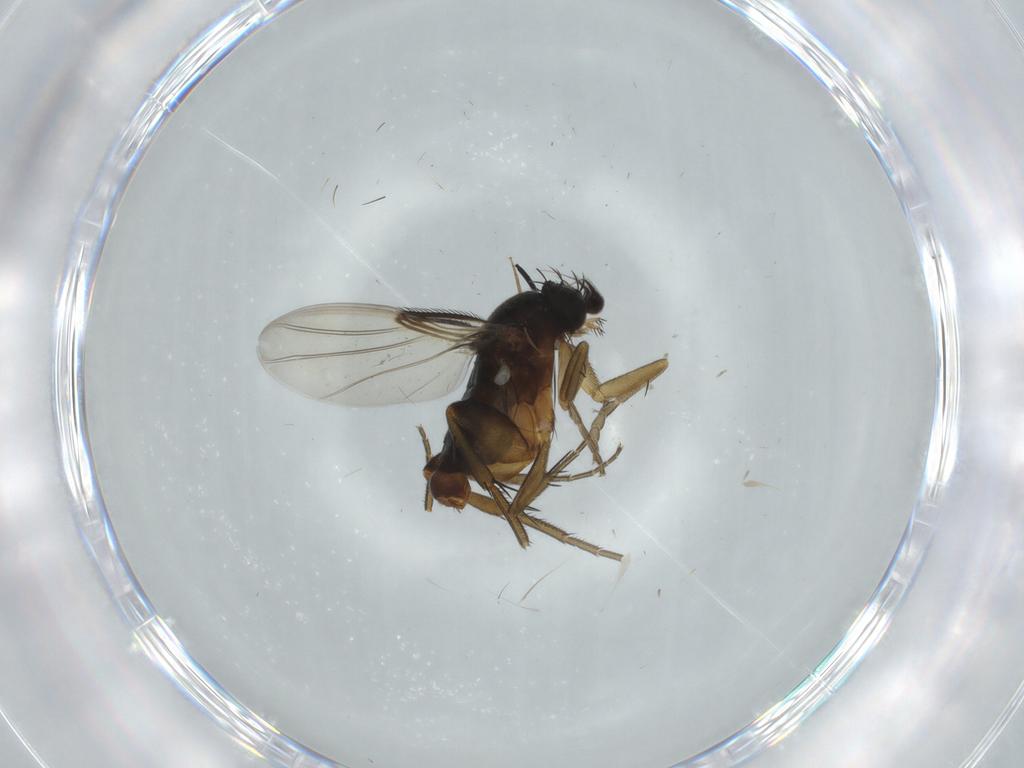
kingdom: Animalia
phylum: Arthropoda
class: Insecta
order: Diptera
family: Phoridae
